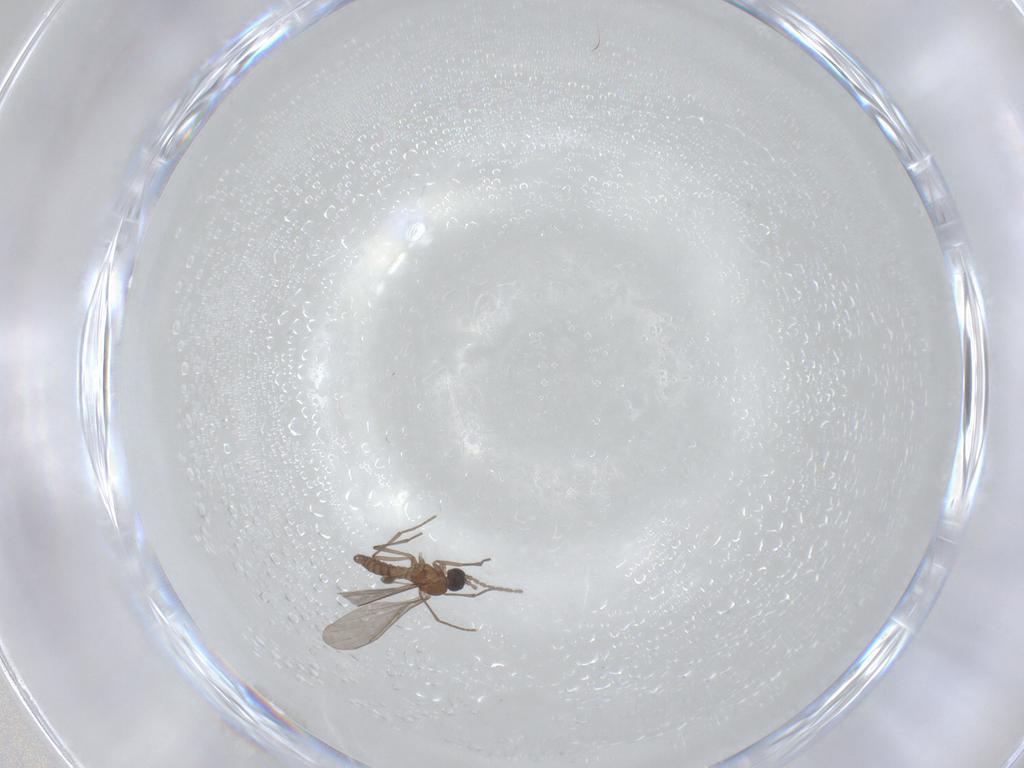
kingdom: Animalia
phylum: Arthropoda
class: Insecta
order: Diptera
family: Sciaridae
